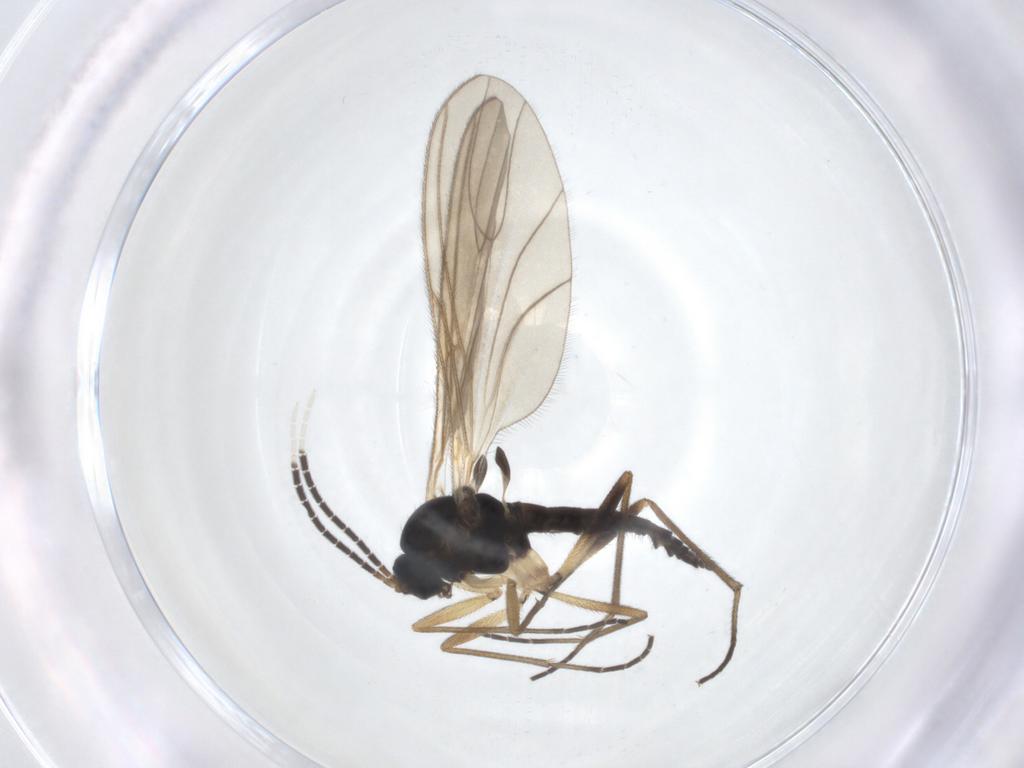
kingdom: Animalia
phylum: Arthropoda
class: Insecta
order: Diptera
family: Sciaridae
